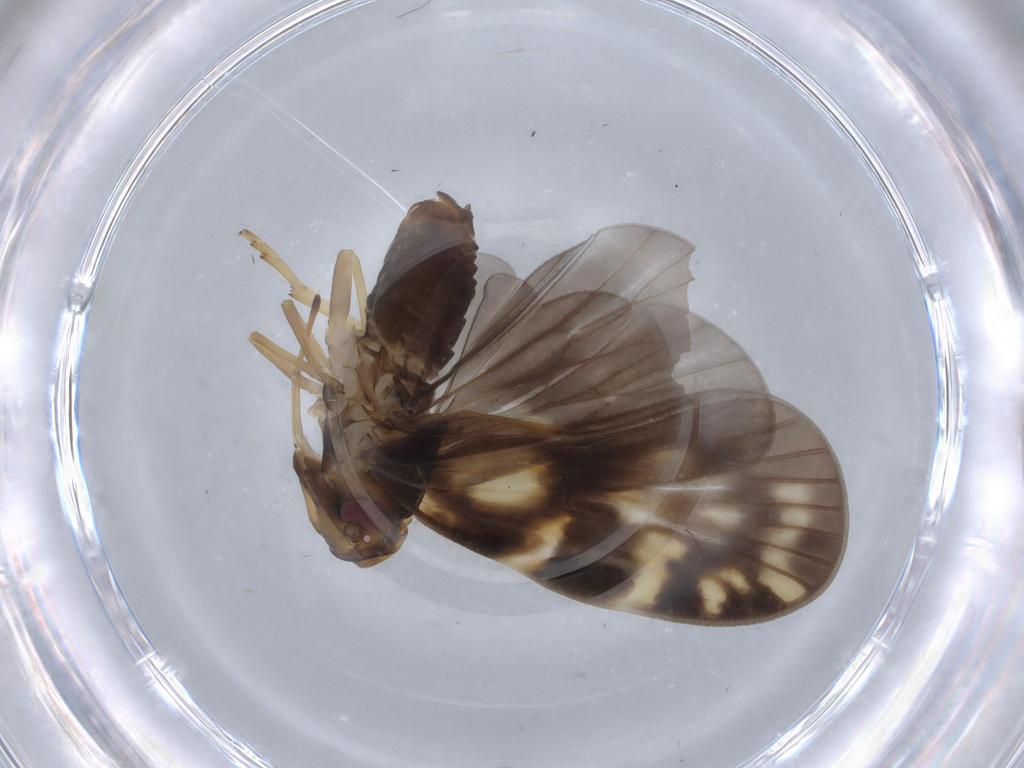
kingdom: Animalia
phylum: Arthropoda
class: Insecta
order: Hemiptera
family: Cixiidae
